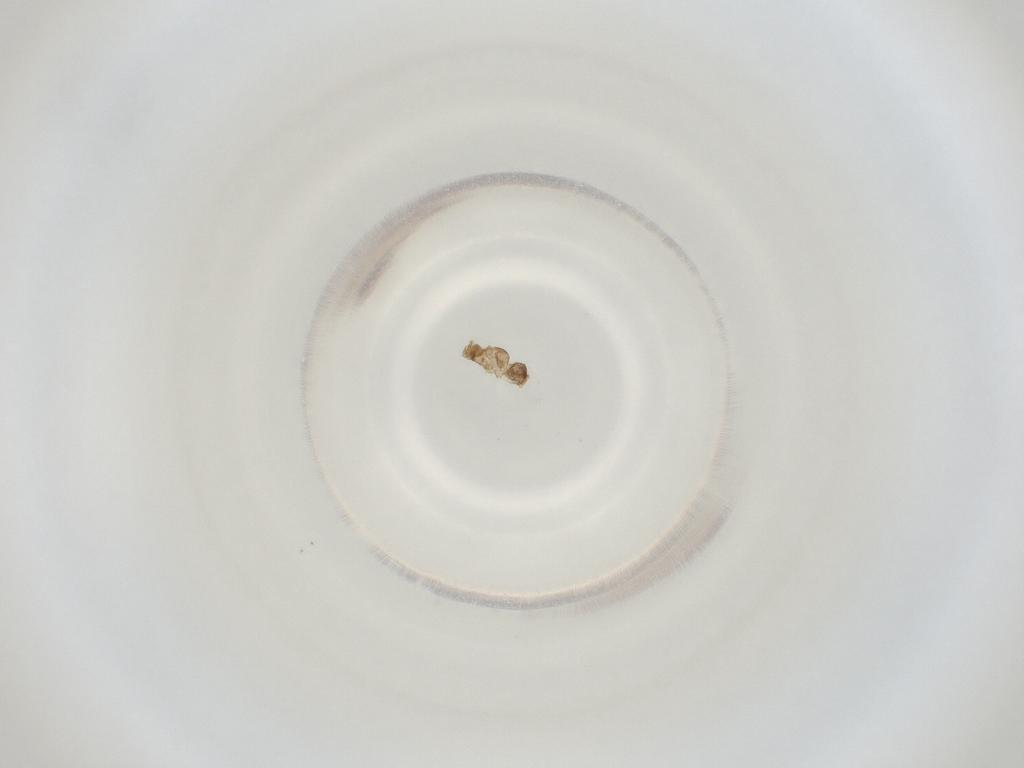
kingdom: Animalia
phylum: Arthropoda
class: Insecta
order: Diptera
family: Cecidomyiidae
